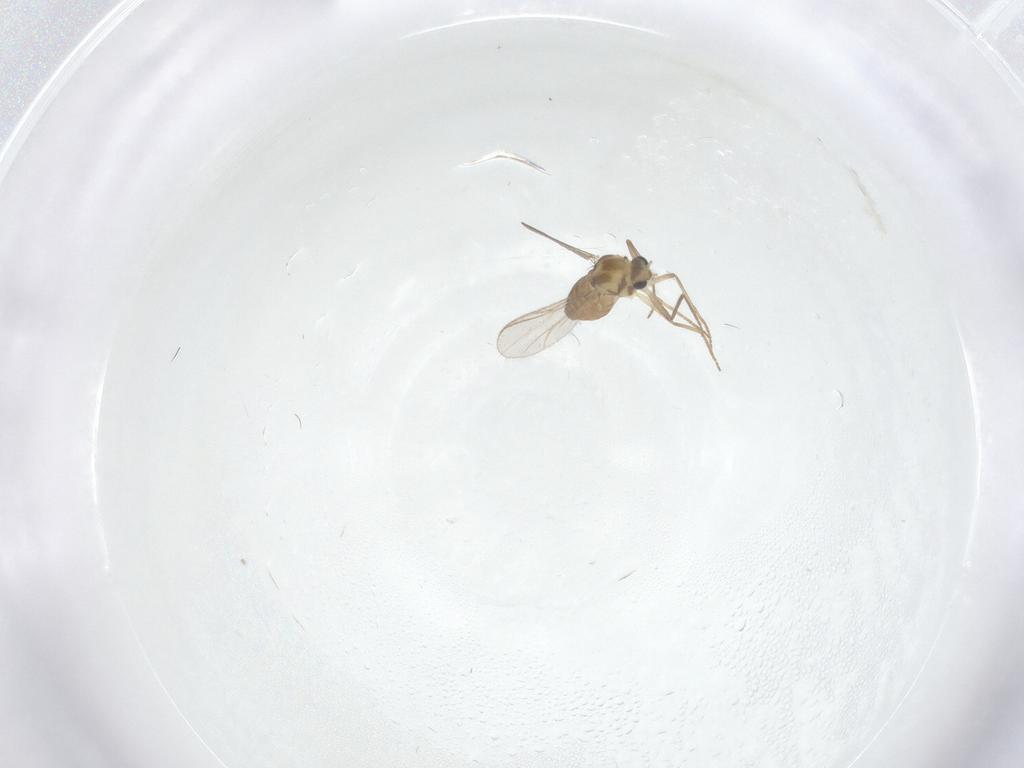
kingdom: Animalia
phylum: Arthropoda
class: Insecta
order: Diptera
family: Chironomidae
